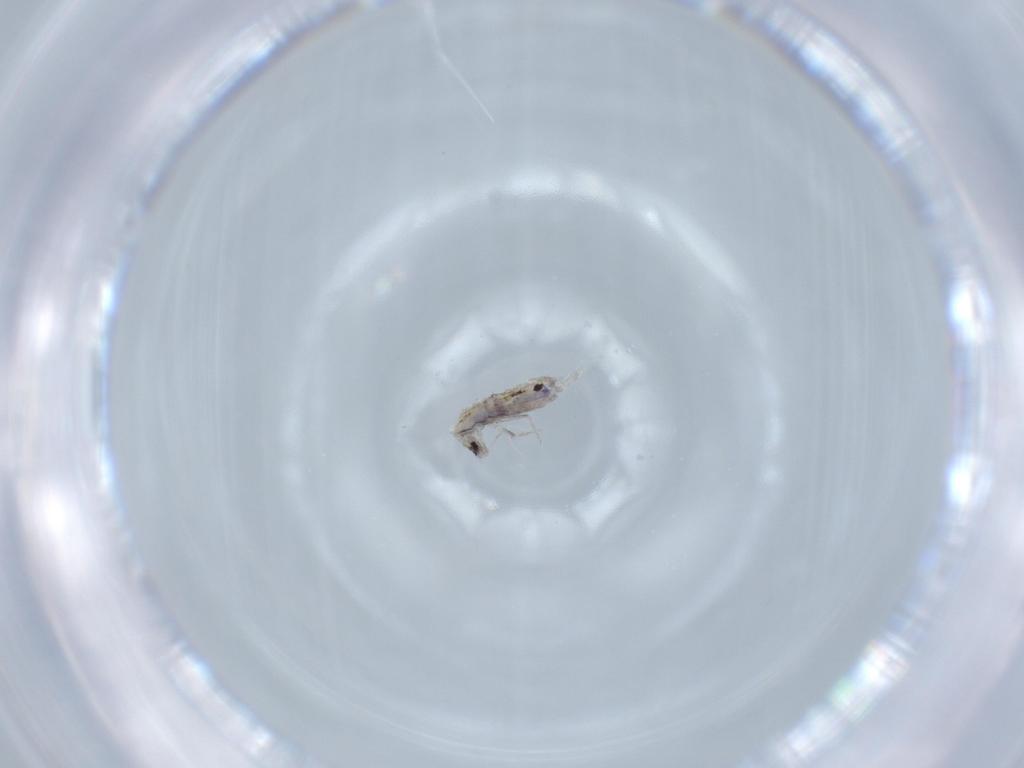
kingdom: Animalia
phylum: Arthropoda
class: Collembola
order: Poduromorpha
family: Hypogastruridae
